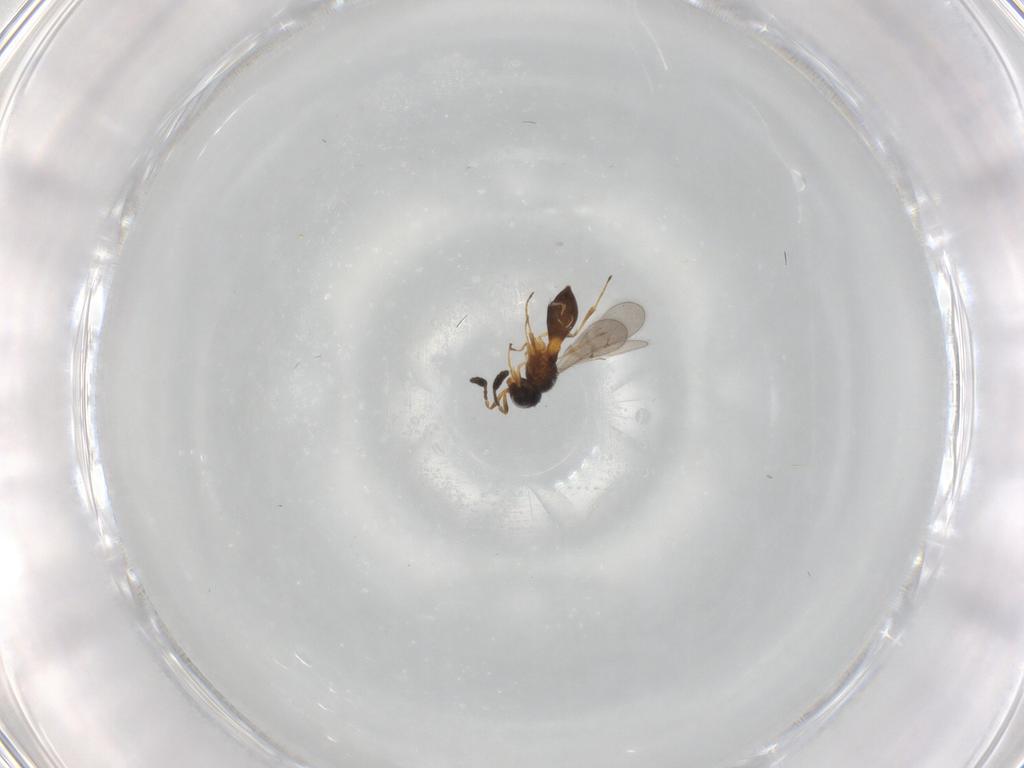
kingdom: Animalia
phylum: Arthropoda
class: Insecta
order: Hymenoptera
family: Scelionidae
